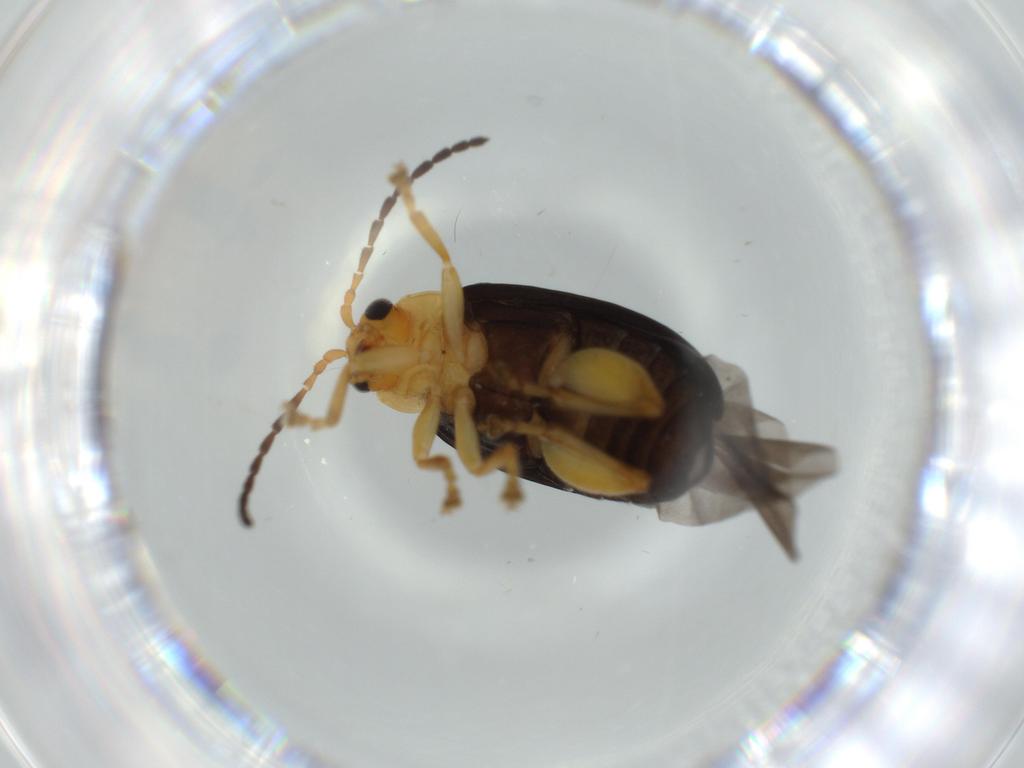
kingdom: Animalia
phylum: Arthropoda
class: Insecta
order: Coleoptera
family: Chrysomelidae
